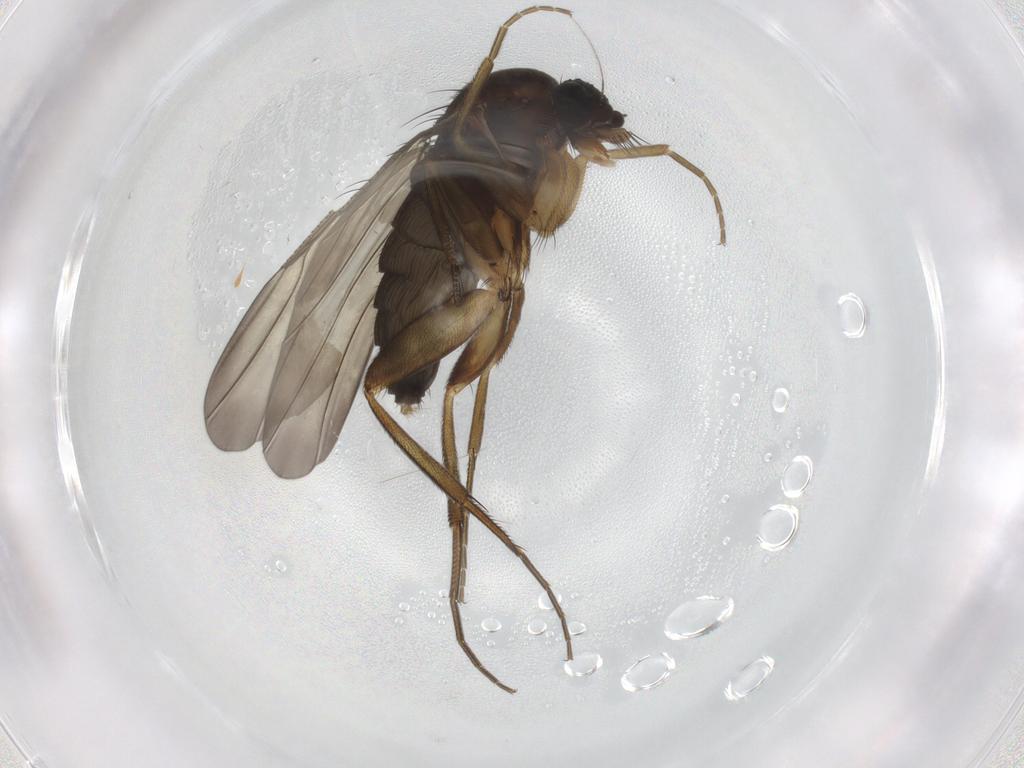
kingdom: Animalia
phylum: Arthropoda
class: Insecta
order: Diptera
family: Phoridae
